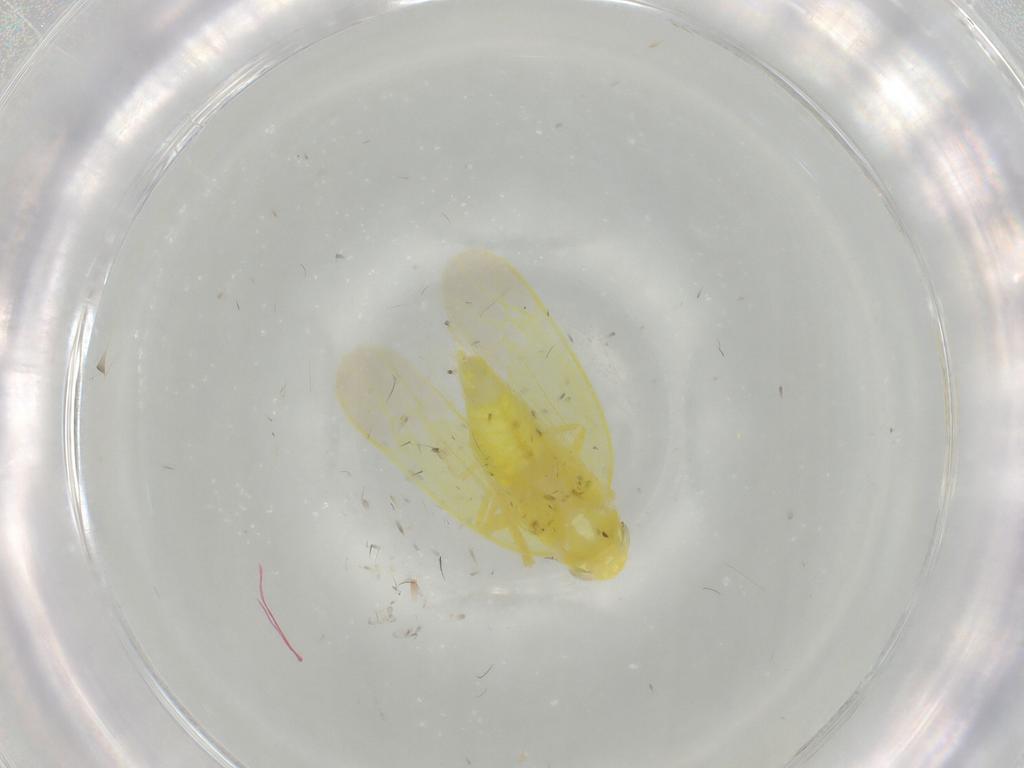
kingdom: Animalia
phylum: Arthropoda
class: Insecta
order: Hemiptera
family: Cicadellidae
